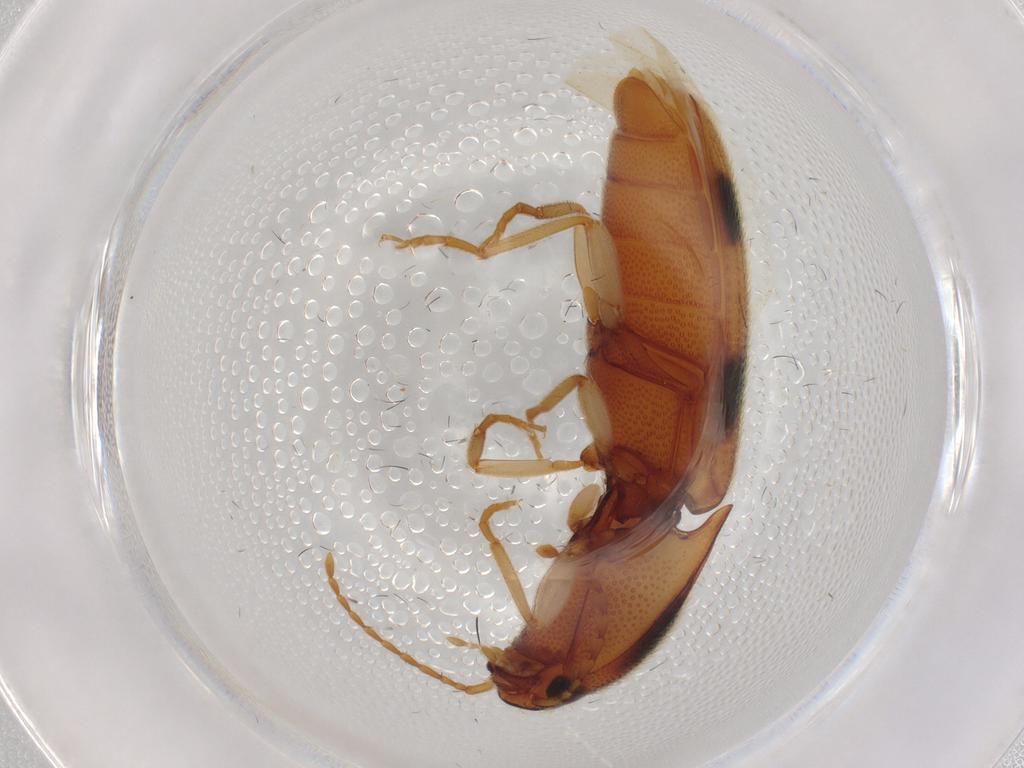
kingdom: Animalia
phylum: Arthropoda
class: Insecta
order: Coleoptera
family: Elateridae
